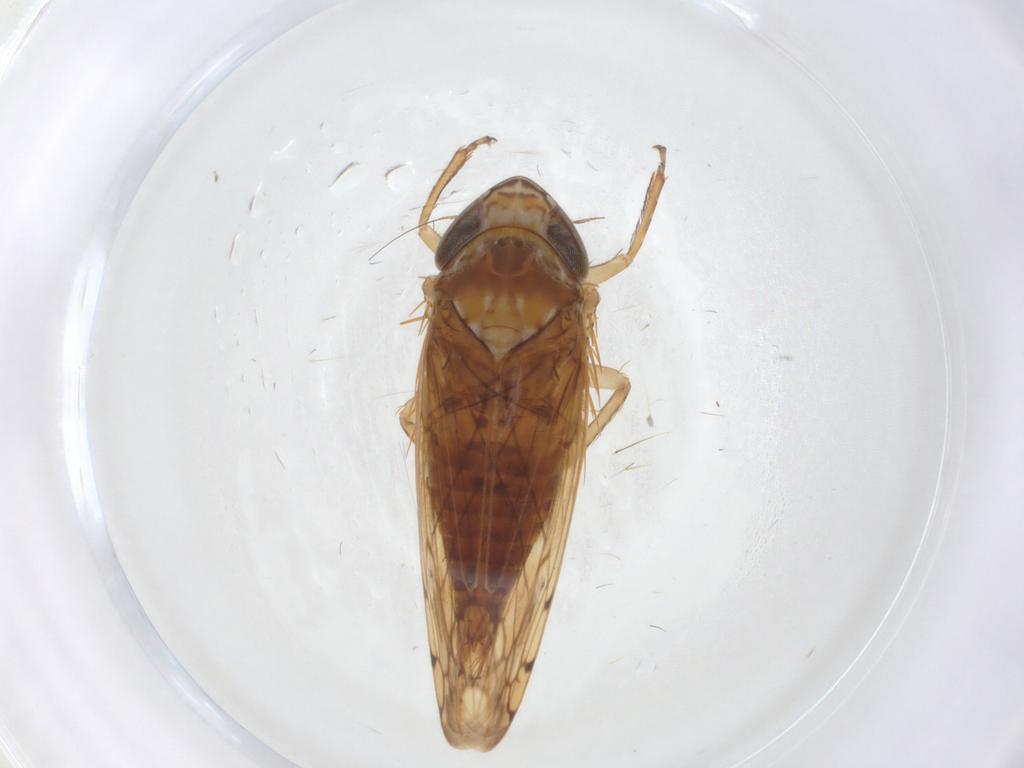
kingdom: Animalia
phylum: Arthropoda
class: Insecta
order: Hemiptera
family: Cicadellidae
